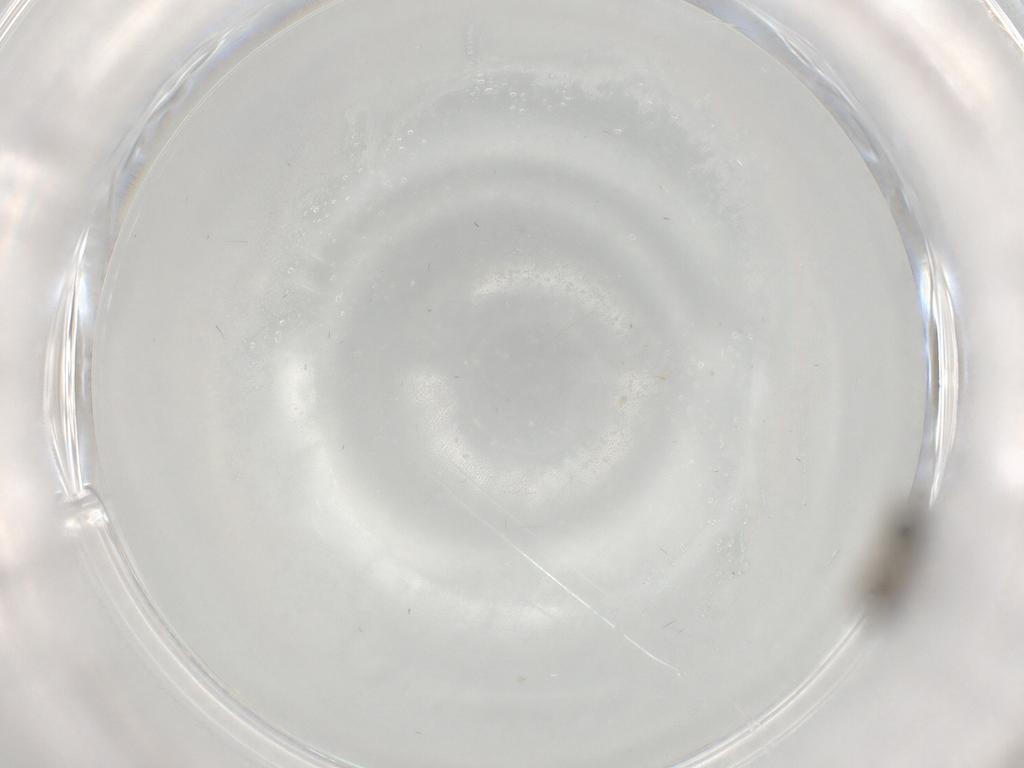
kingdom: Animalia
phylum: Arthropoda
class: Insecta
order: Diptera
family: Cecidomyiidae
